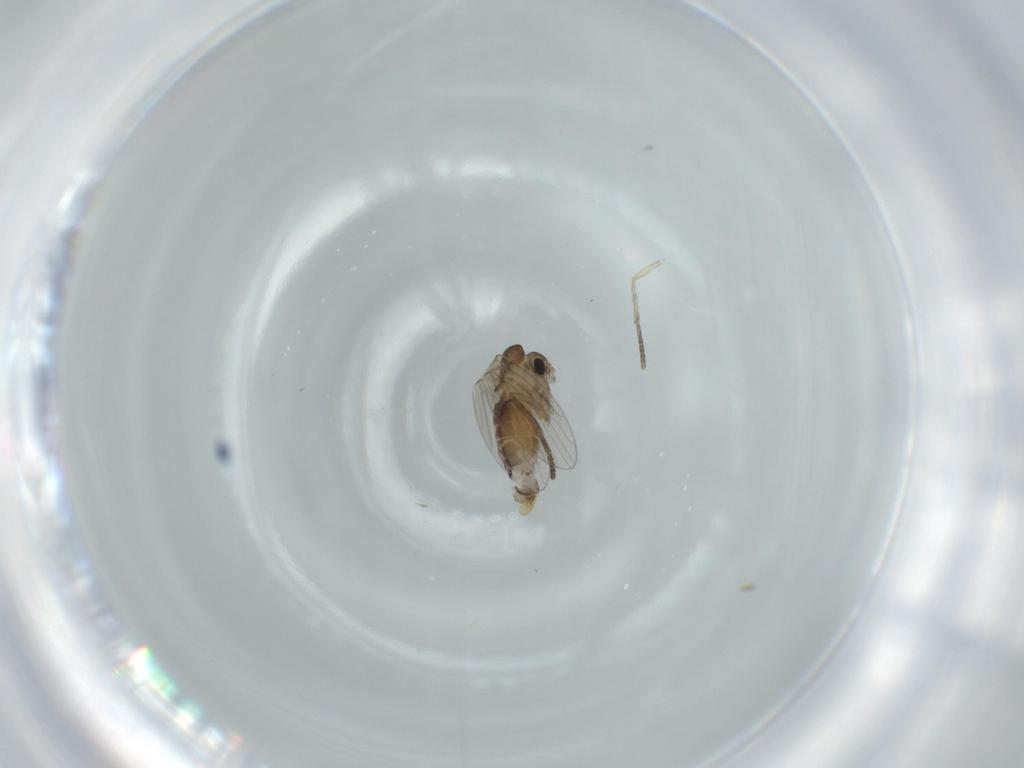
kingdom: Animalia
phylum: Arthropoda
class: Insecta
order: Diptera
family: Psychodidae
